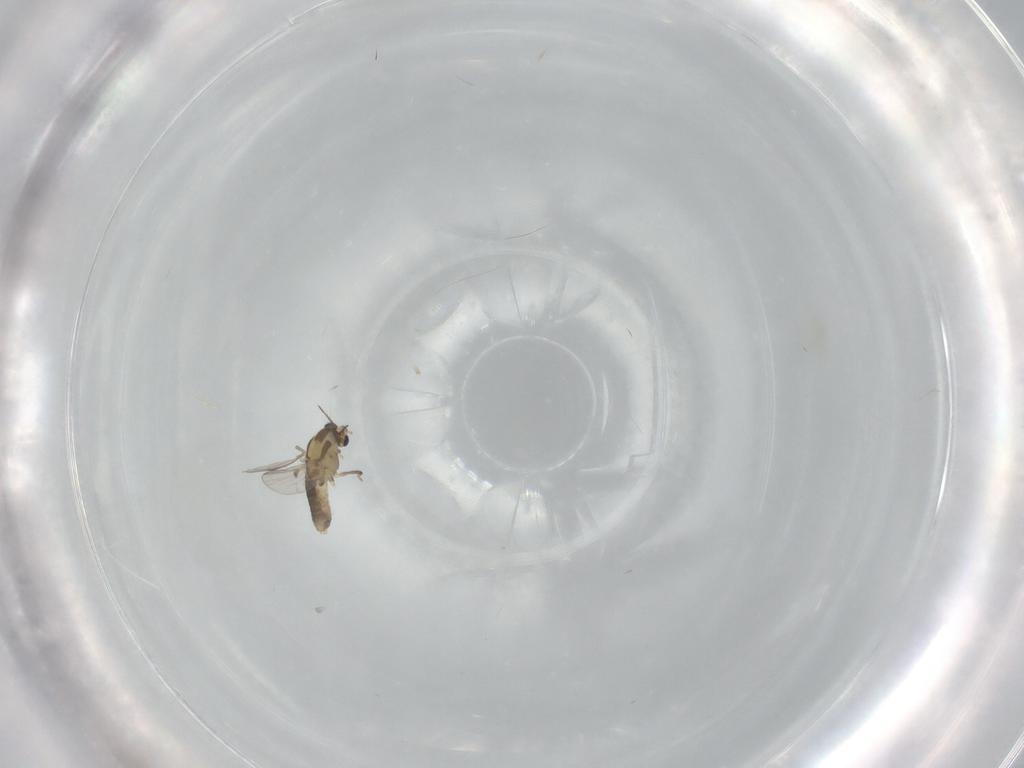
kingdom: Animalia
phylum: Arthropoda
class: Insecta
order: Diptera
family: Chironomidae
